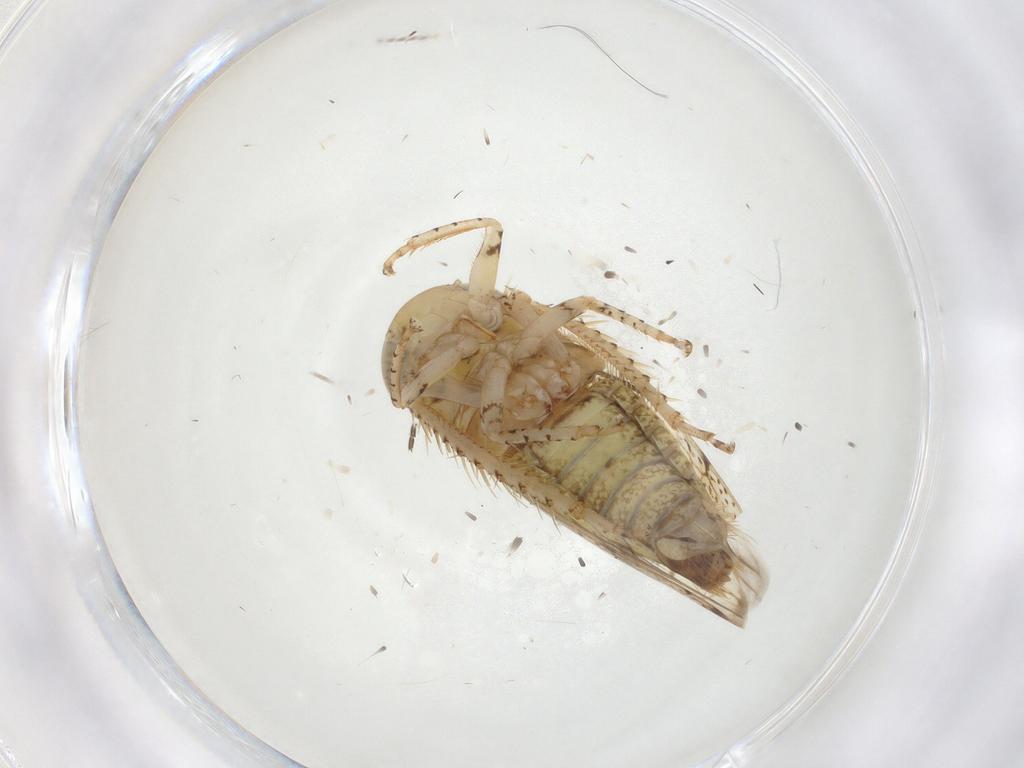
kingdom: Animalia
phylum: Arthropoda
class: Insecta
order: Hemiptera
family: Cicadellidae
